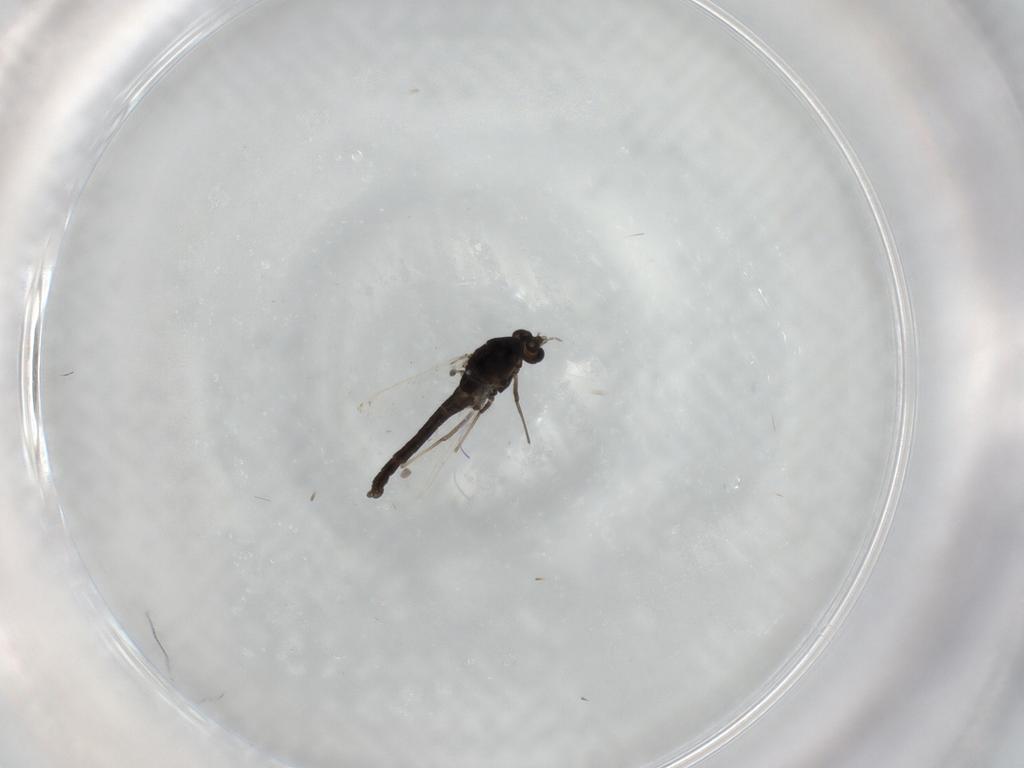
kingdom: Animalia
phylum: Arthropoda
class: Insecta
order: Diptera
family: Chironomidae
